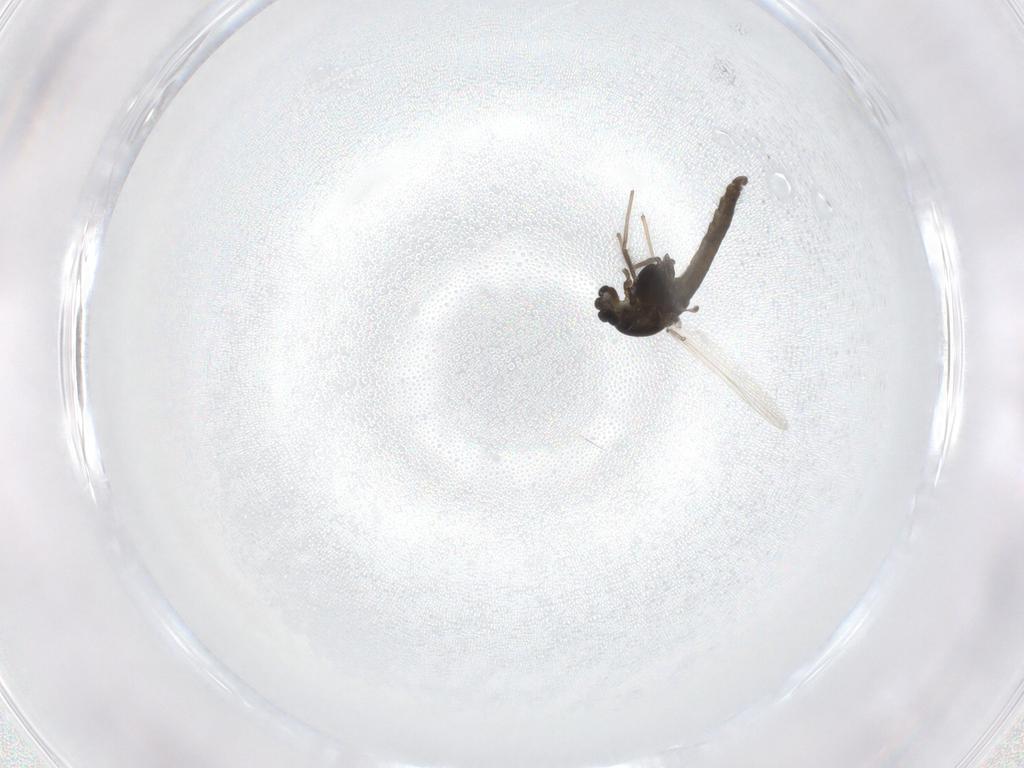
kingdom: Animalia
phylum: Arthropoda
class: Insecta
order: Diptera
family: Chironomidae
